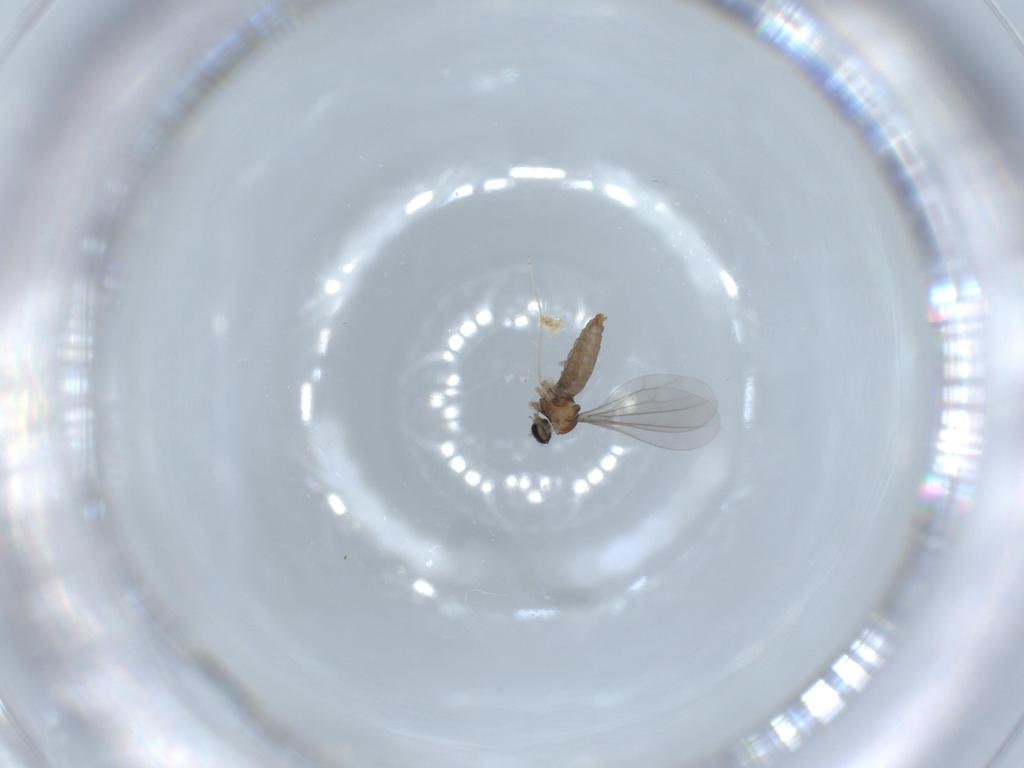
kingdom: Animalia
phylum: Arthropoda
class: Insecta
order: Diptera
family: Cecidomyiidae
